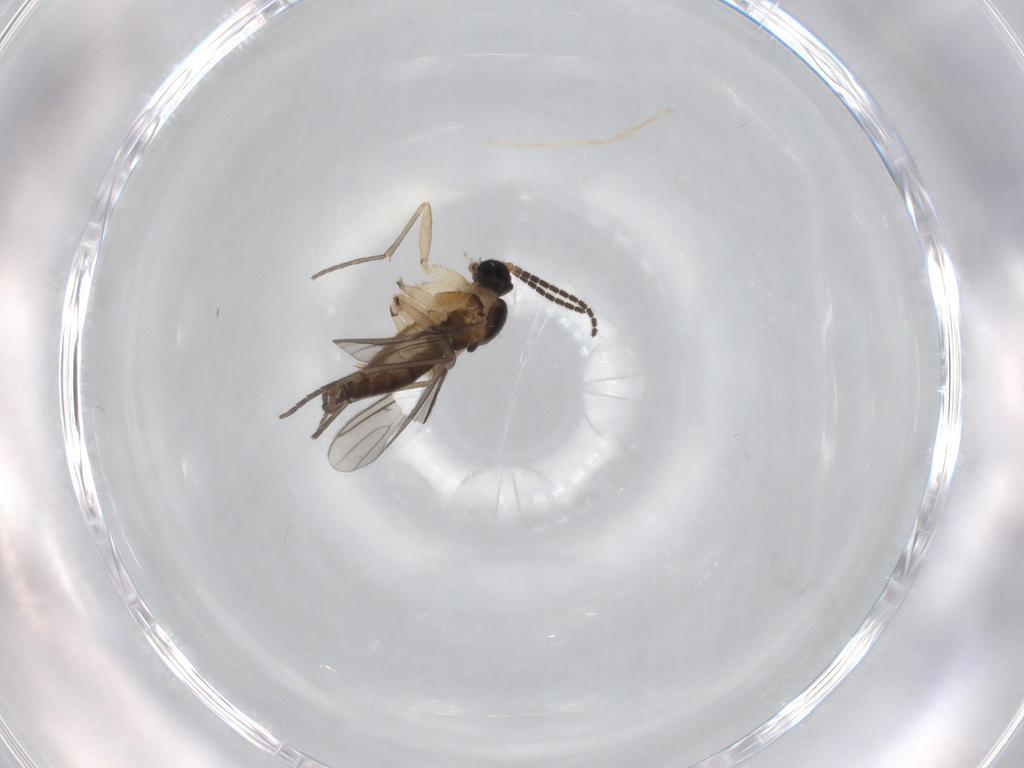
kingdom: Animalia
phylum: Arthropoda
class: Insecta
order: Diptera
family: Sciaridae
